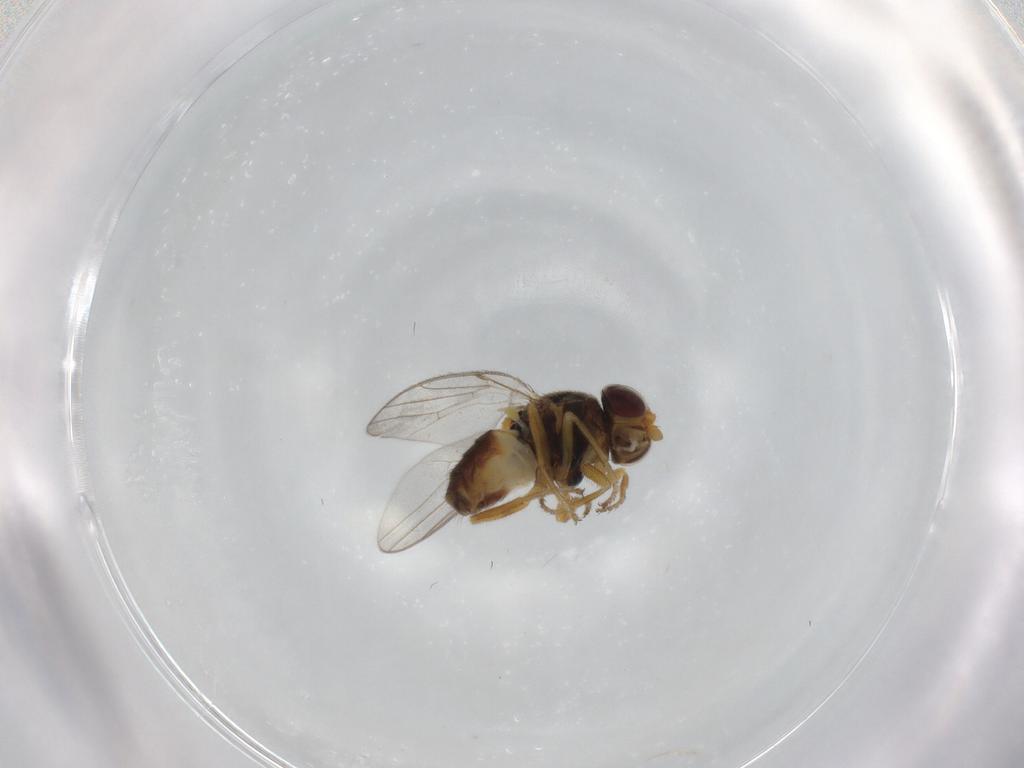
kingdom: Animalia
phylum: Arthropoda
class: Insecta
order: Diptera
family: Chloropidae
